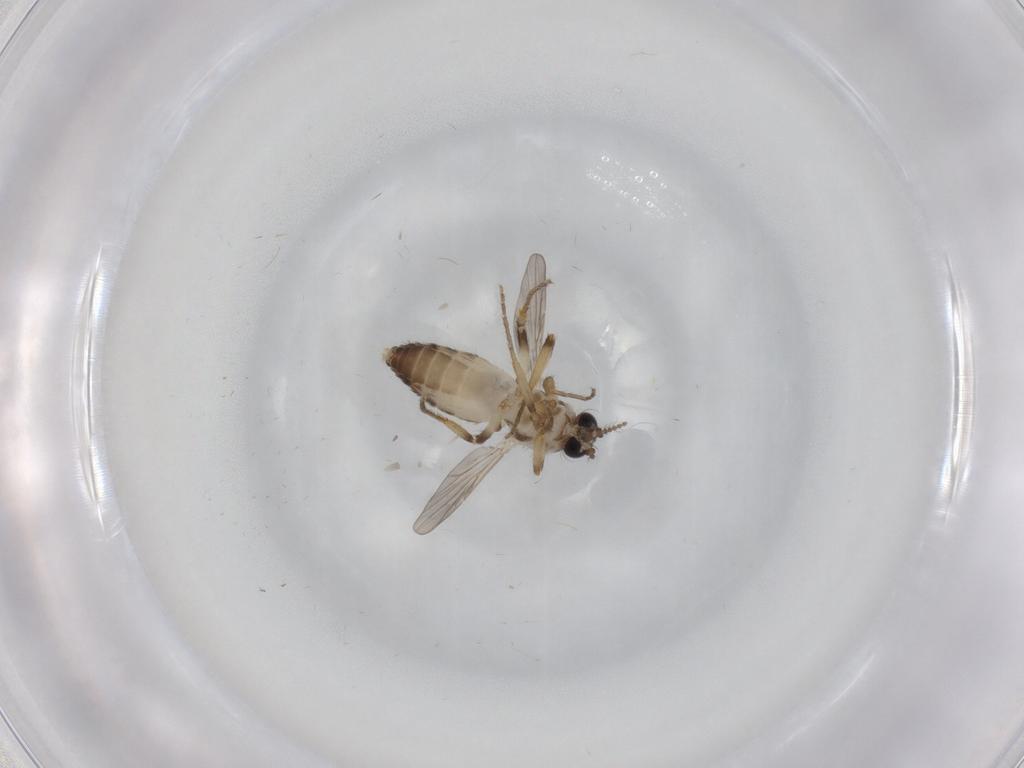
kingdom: Animalia
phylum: Arthropoda
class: Insecta
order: Diptera
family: Ceratopogonidae
